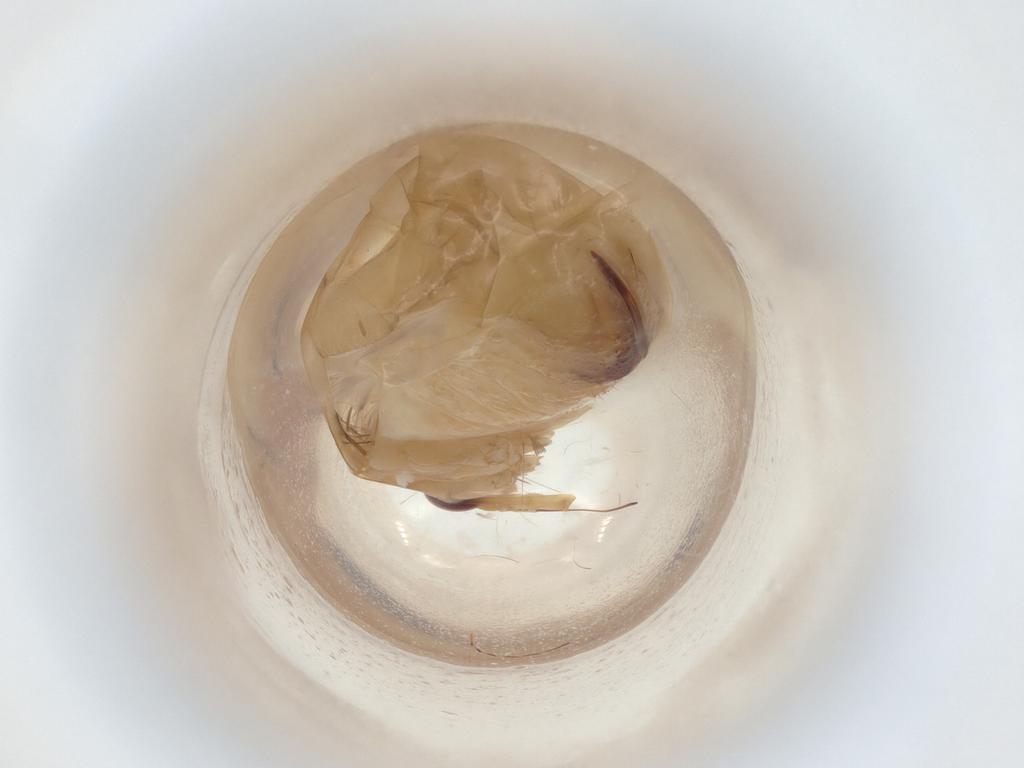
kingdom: Animalia
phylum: Arthropoda
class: Insecta
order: Hemiptera
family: Miridae
